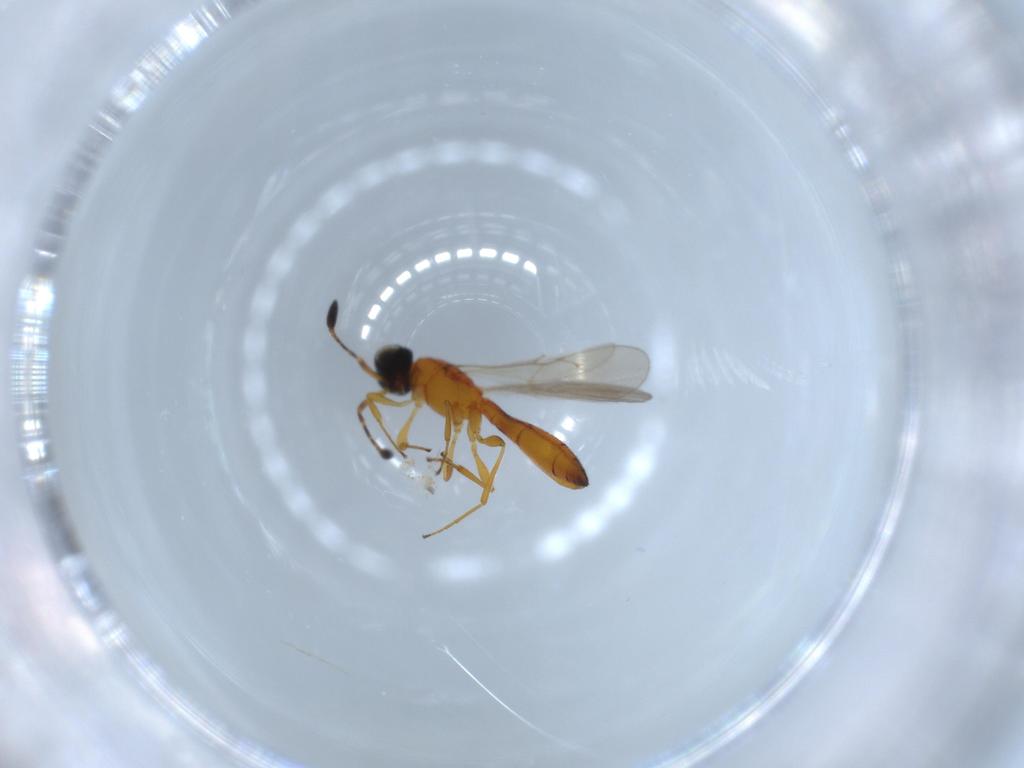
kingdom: Animalia
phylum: Arthropoda
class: Insecta
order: Hymenoptera
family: Scelionidae
